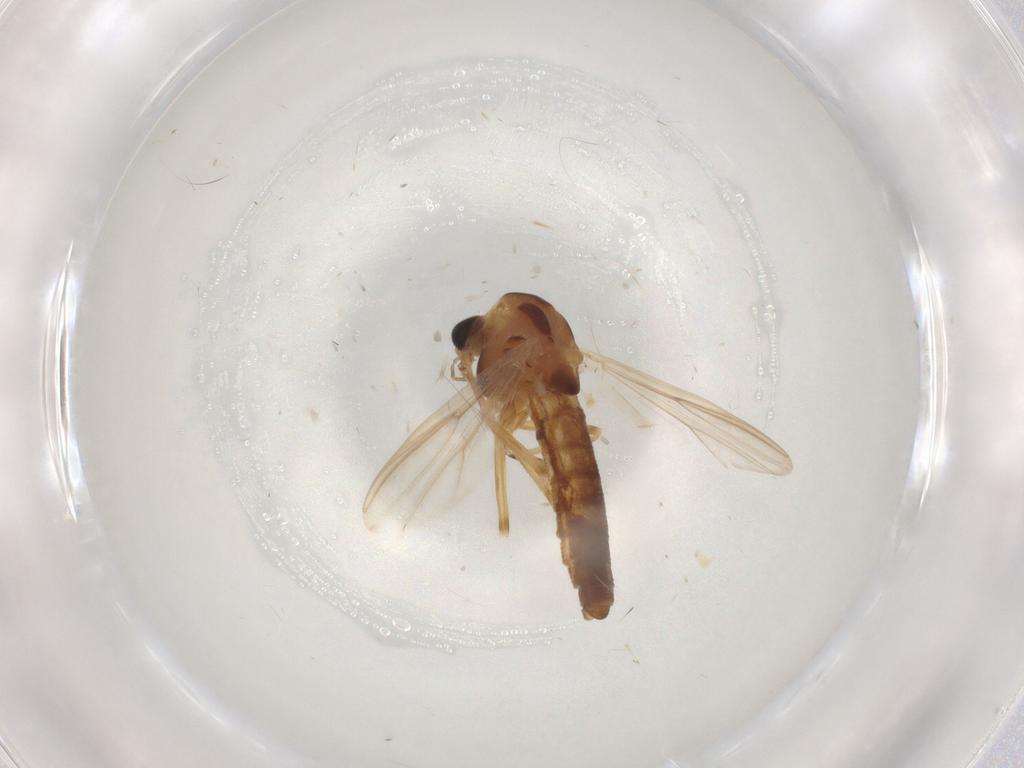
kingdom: Animalia
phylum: Arthropoda
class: Insecta
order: Diptera
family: Chironomidae
